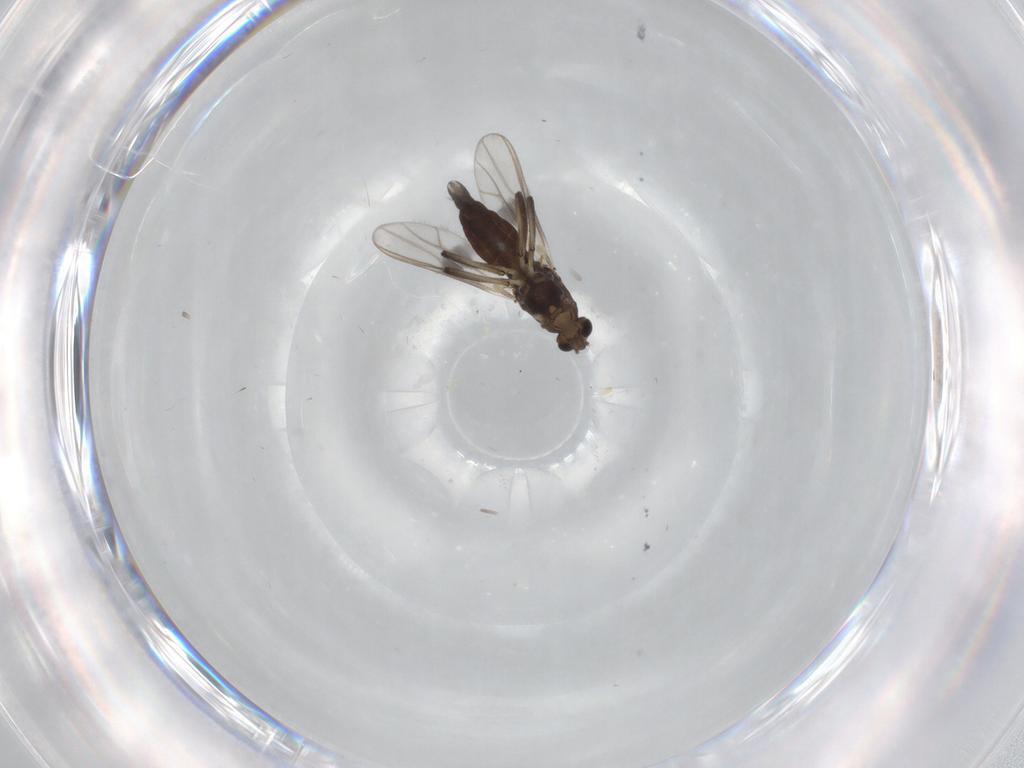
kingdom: Animalia
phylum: Arthropoda
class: Insecta
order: Diptera
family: Chironomidae
